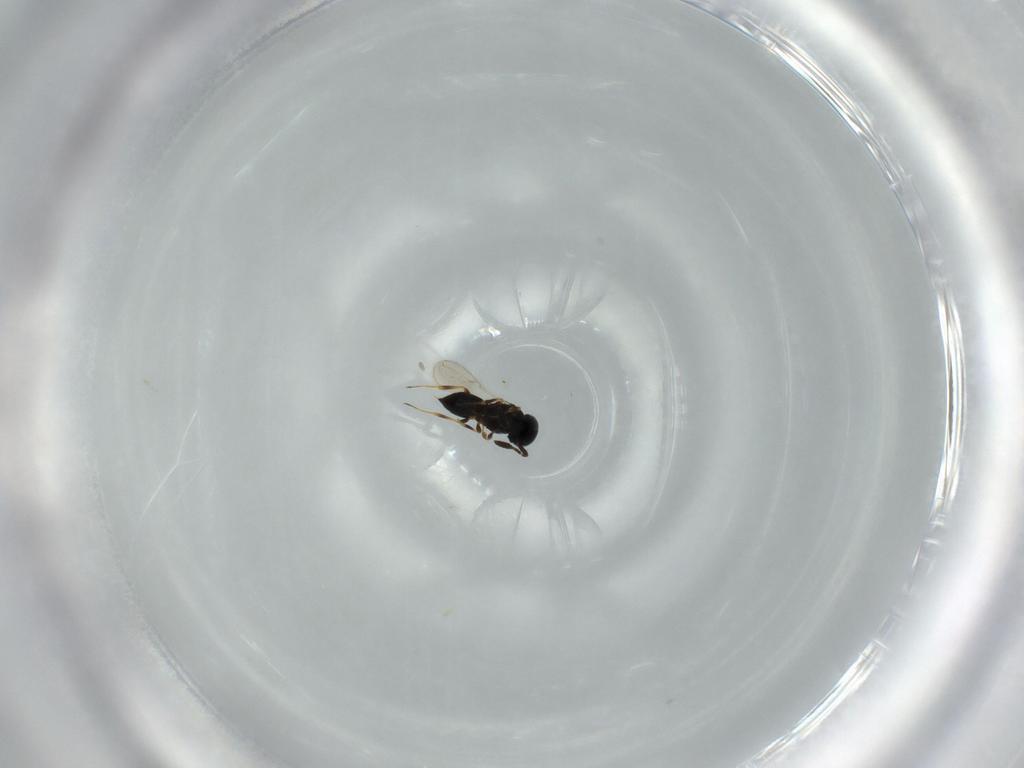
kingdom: Animalia
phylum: Arthropoda
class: Insecta
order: Hymenoptera
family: Scelionidae
